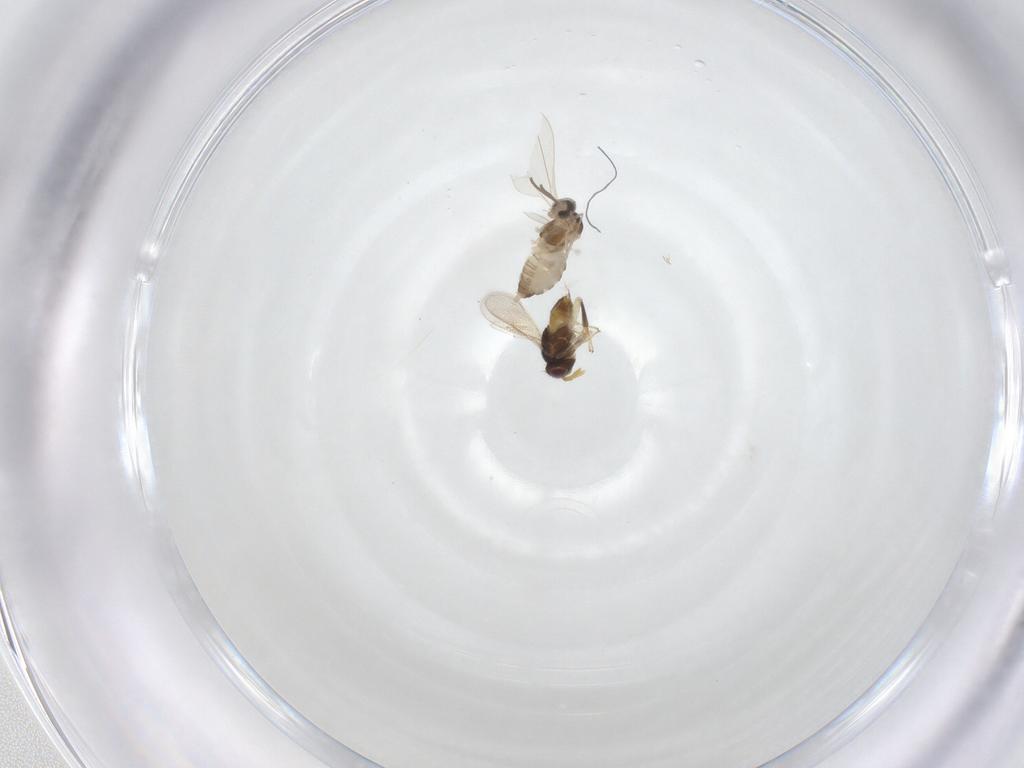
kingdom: Animalia
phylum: Arthropoda
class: Insecta
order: Hymenoptera
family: Aphelinidae
